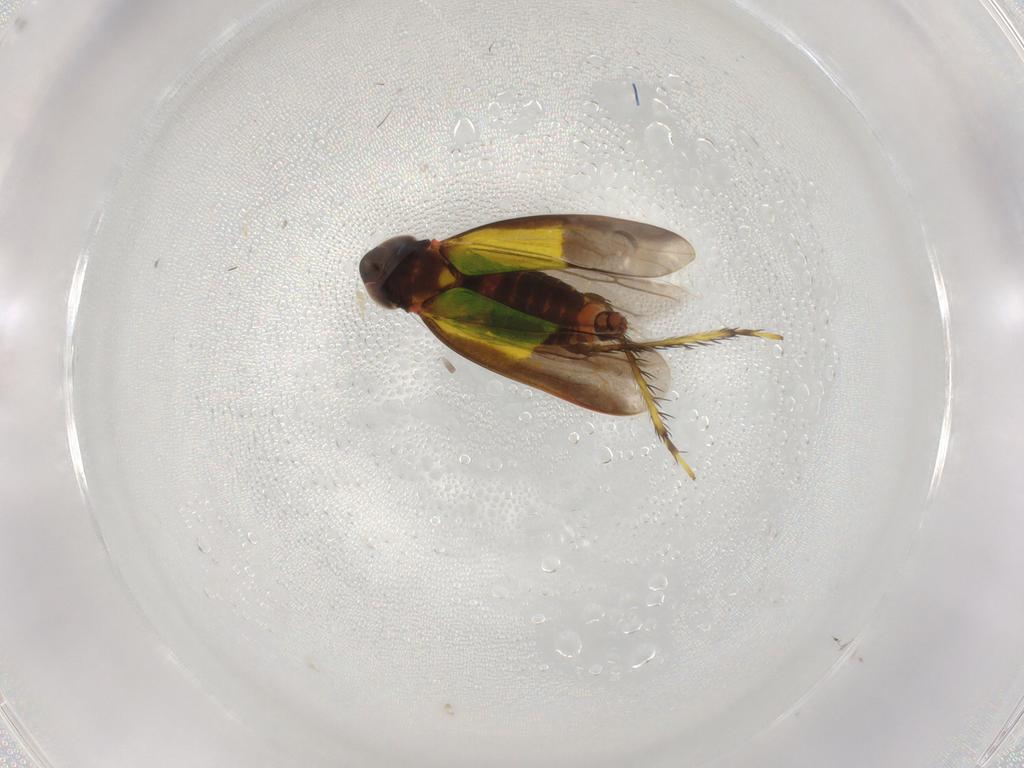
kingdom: Animalia
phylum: Arthropoda
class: Insecta
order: Hemiptera
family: Cicadellidae
